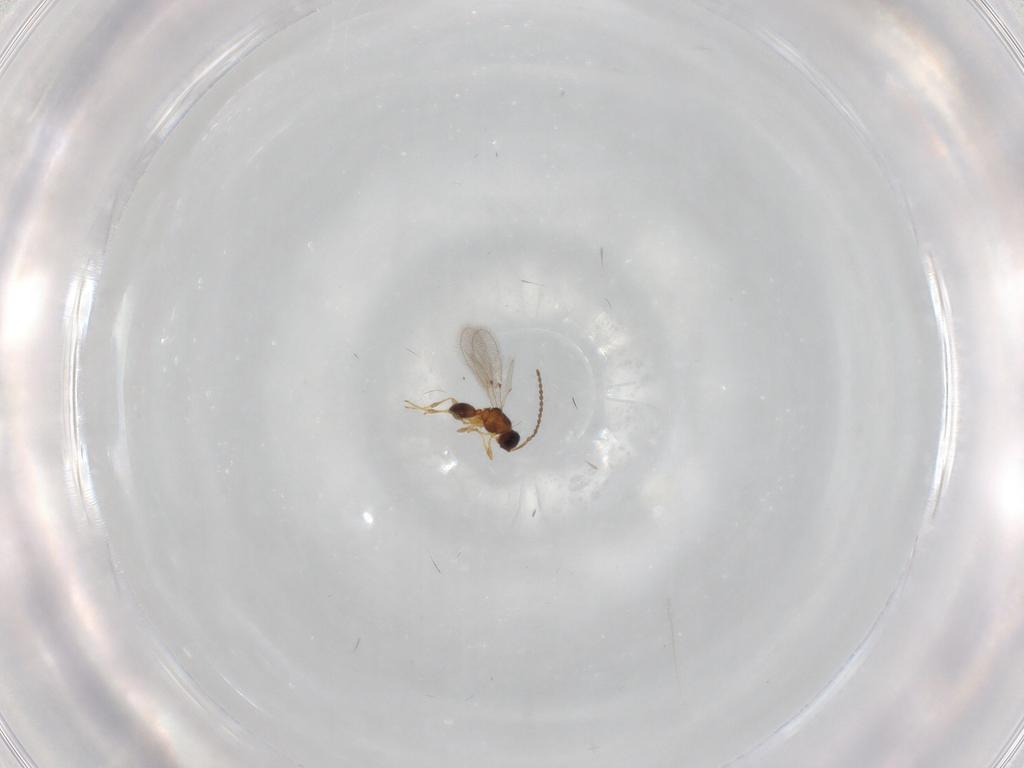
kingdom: Animalia
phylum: Arthropoda
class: Insecta
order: Hymenoptera
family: Diapriidae
